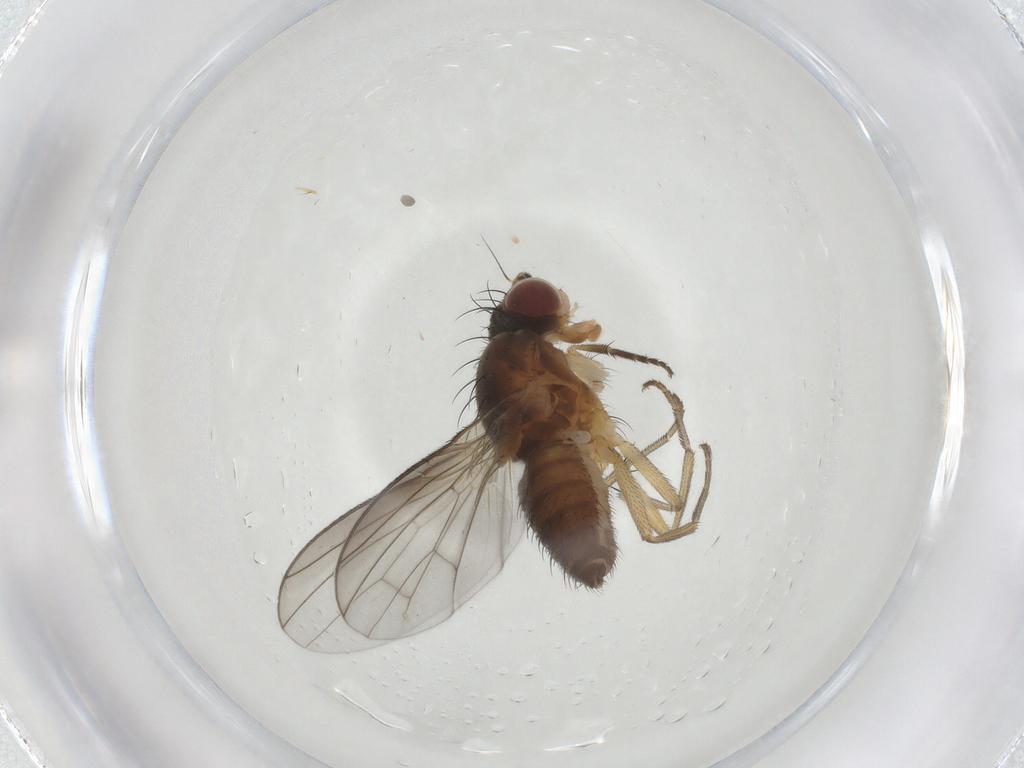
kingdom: Animalia
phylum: Arthropoda
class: Insecta
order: Diptera
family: Heleomyzidae
